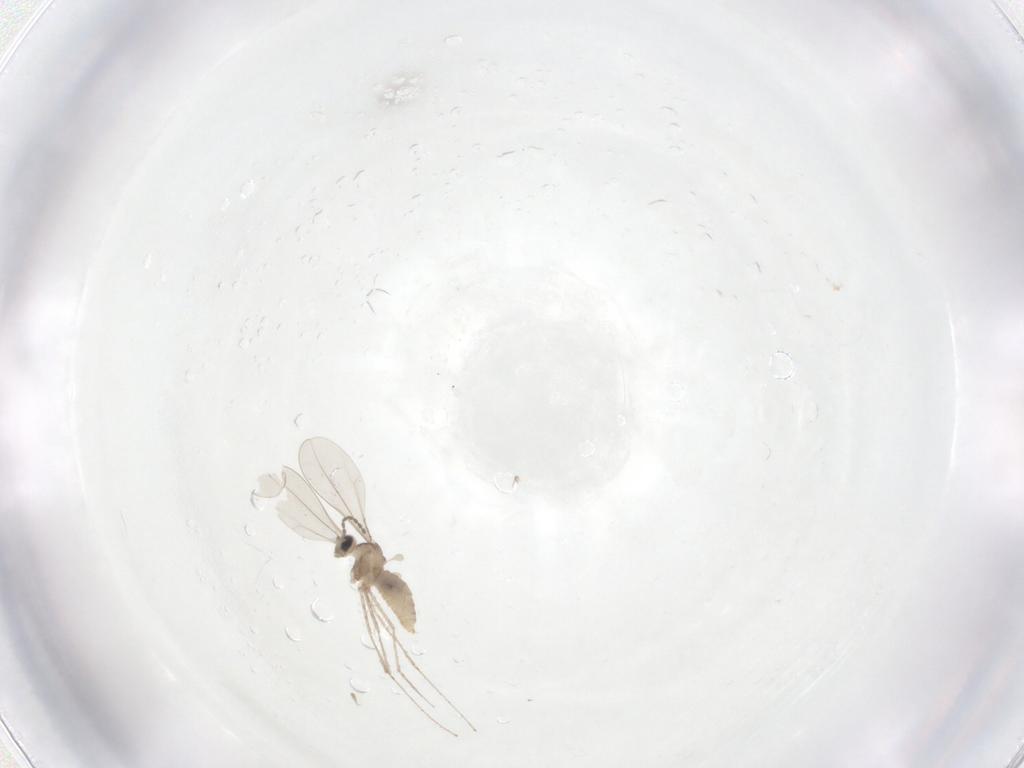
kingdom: Animalia
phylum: Arthropoda
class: Insecta
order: Diptera
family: Cecidomyiidae
